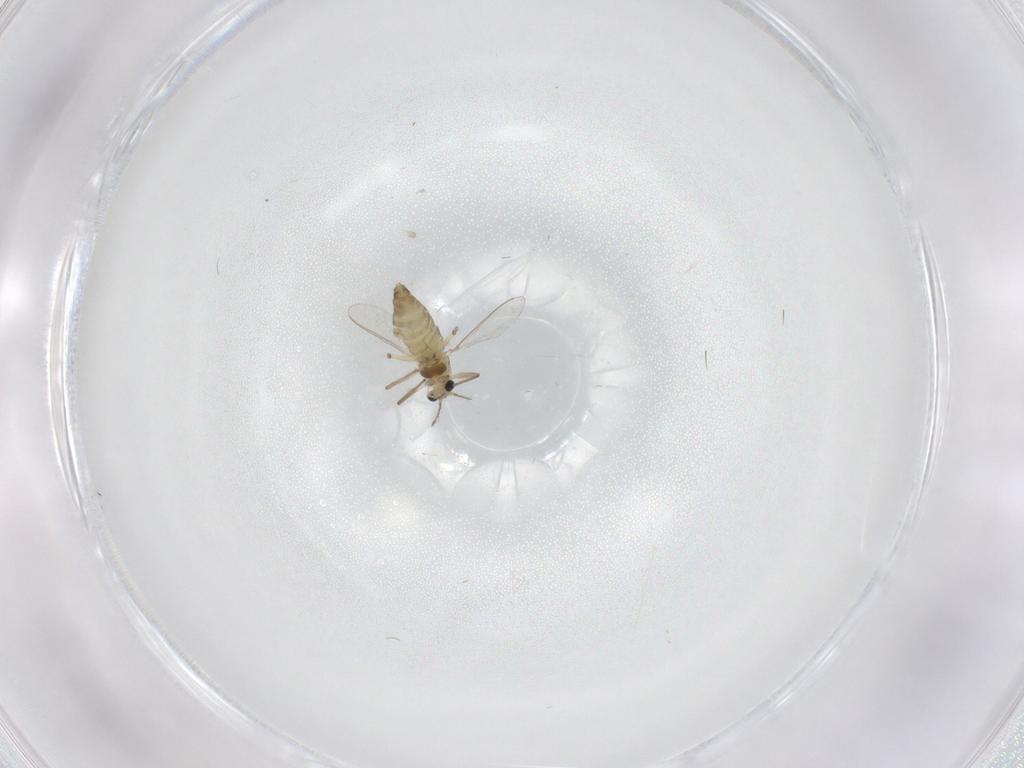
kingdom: Animalia
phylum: Arthropoda
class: Insecta
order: Diptera
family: Chironomidae
